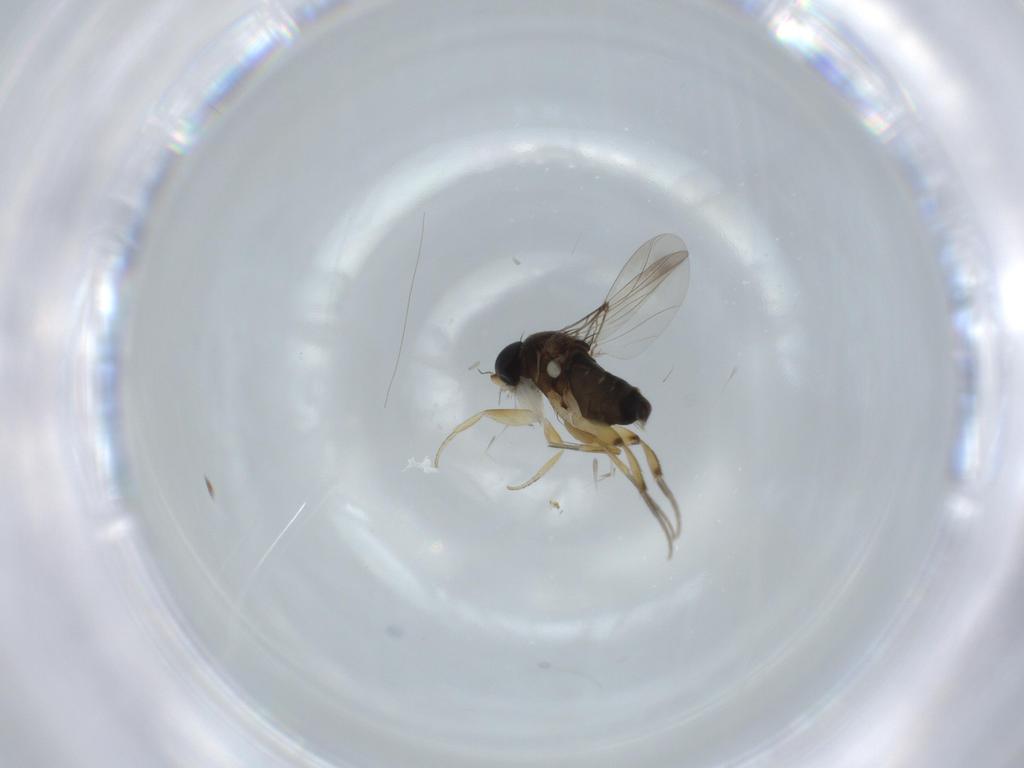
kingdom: Animalia
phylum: Arthropoda
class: Insecta
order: Diptera
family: Phoridae
